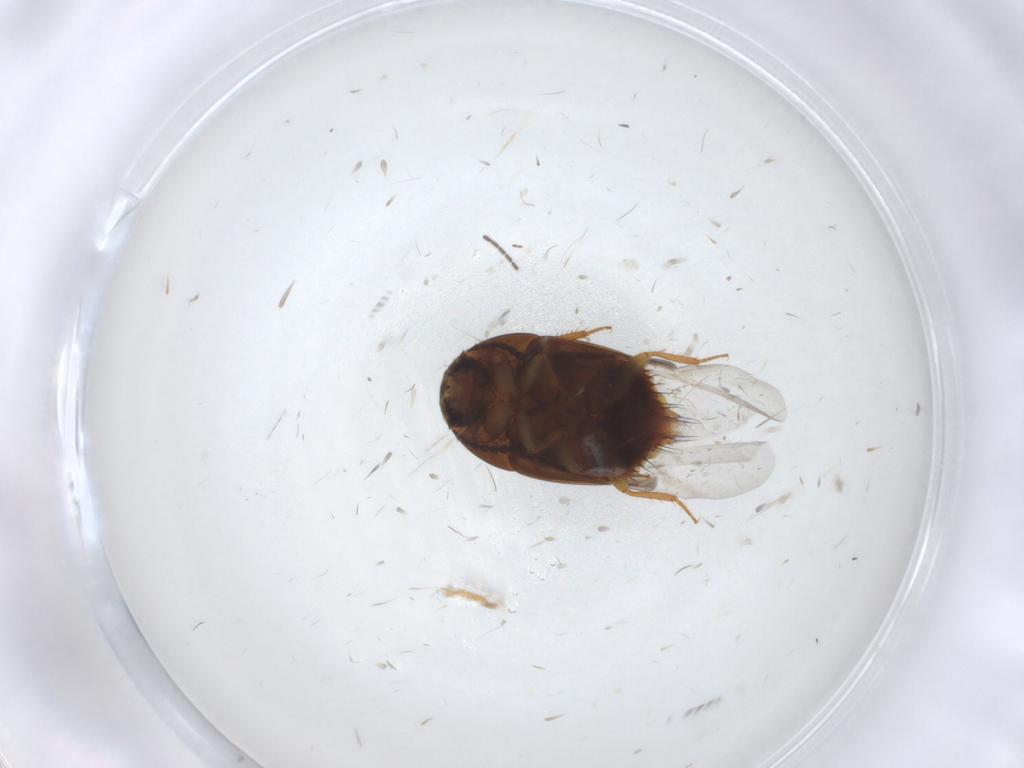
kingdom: Animalia
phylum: Arthropoda
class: Insecta
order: Coleoptera
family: Staphylinidae
